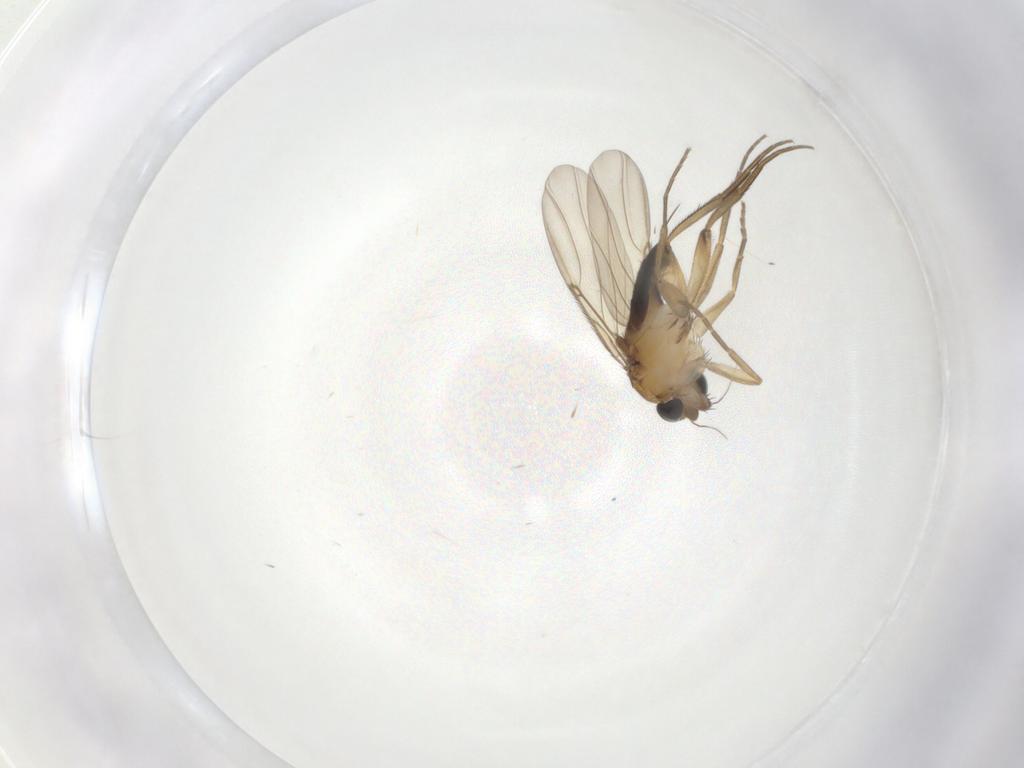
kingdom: Animalia
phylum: Arthropoda
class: Insecta
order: Diptera
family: Phoridae
